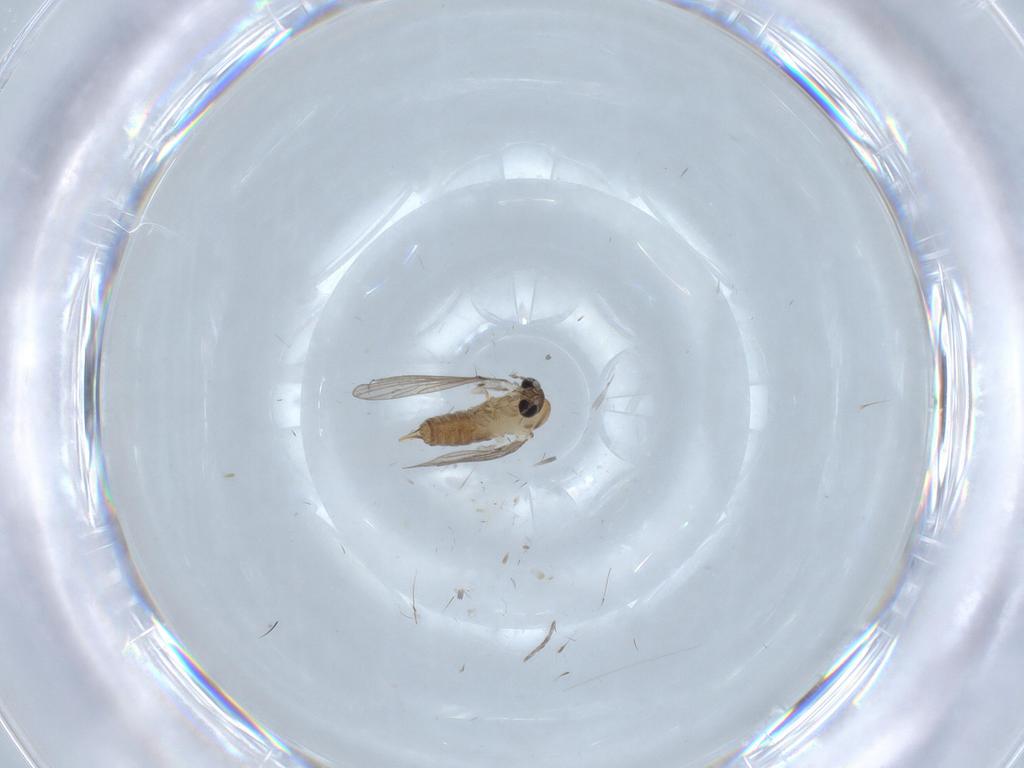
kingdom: Animalia
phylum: Arthropoda
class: Insecta
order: Diptera
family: Cecidomyiidae
